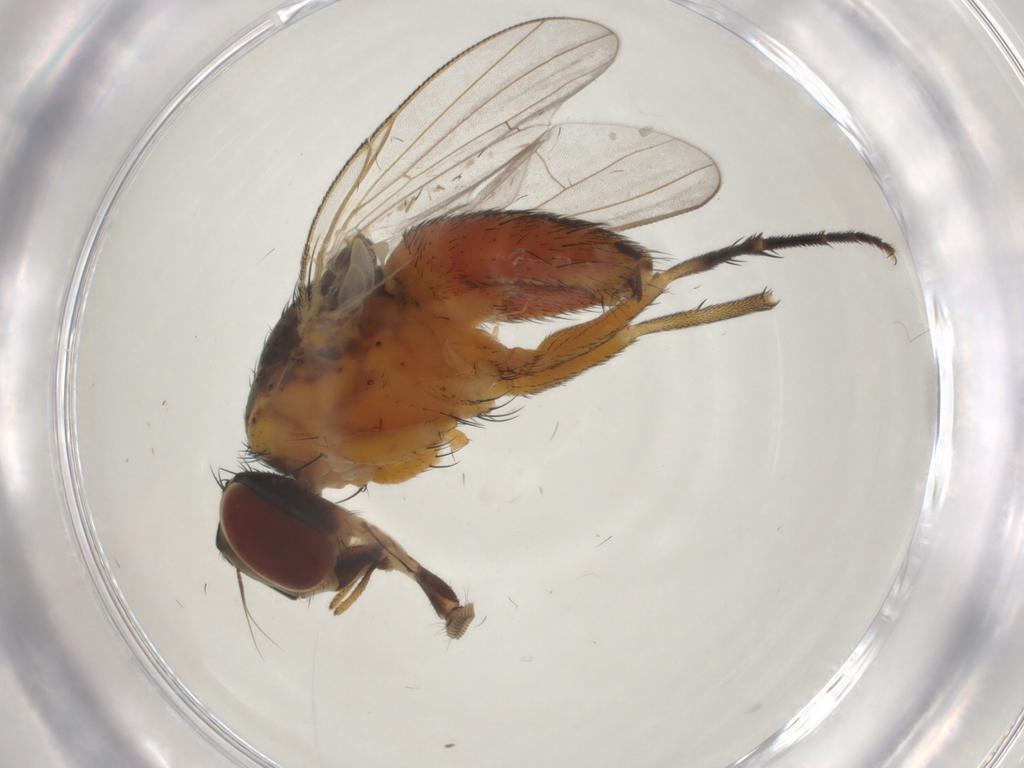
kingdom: Animalia
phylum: Arthropoda
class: Insecta
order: Diptera
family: Muscidae
